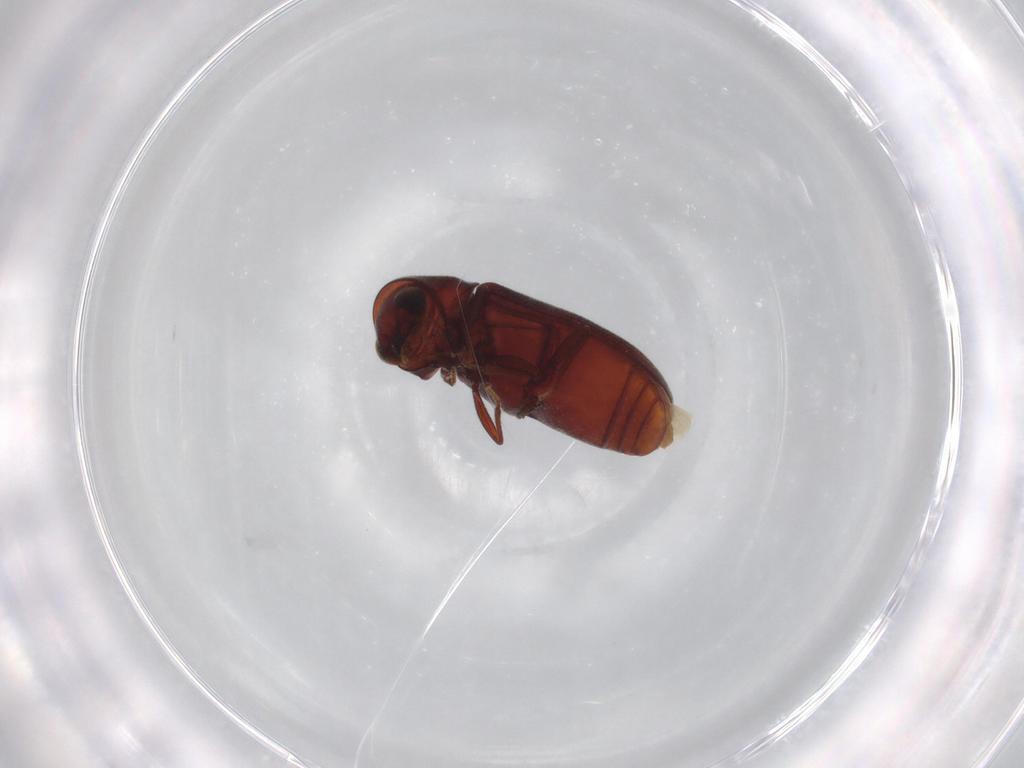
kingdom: Animalia
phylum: Arthropoda
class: Insecta
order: Coleoptera
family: Ptinidae
